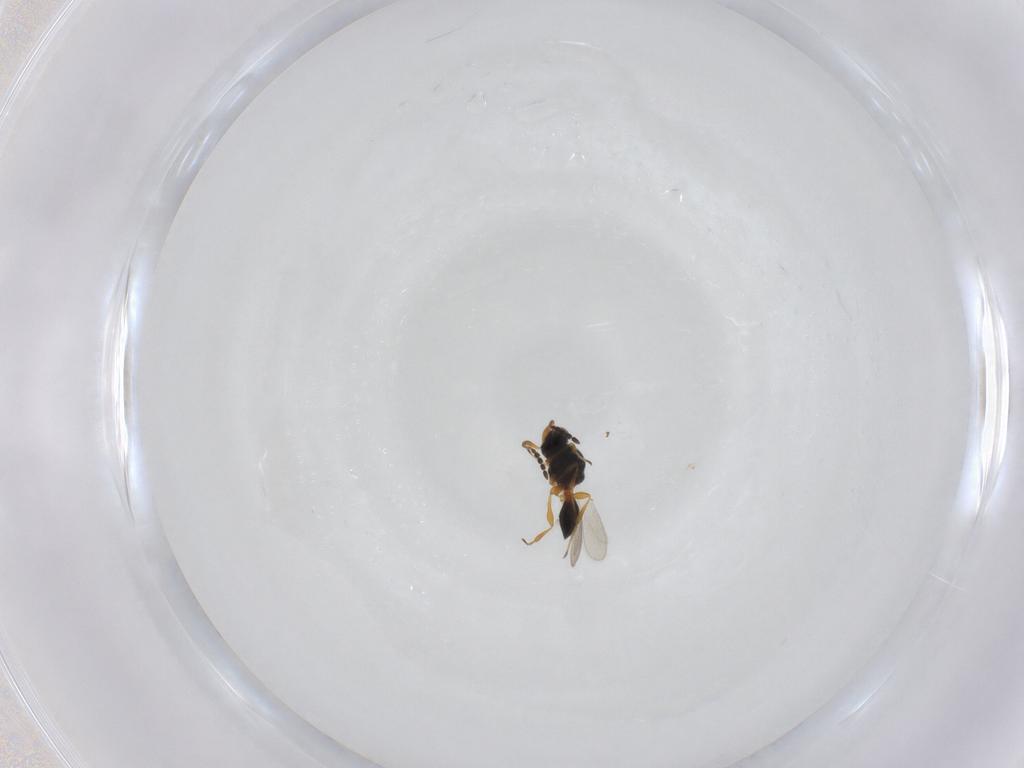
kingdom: Animalia
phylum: Arthropoda
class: Insecta
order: Hymenoptera
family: Platygastridae
